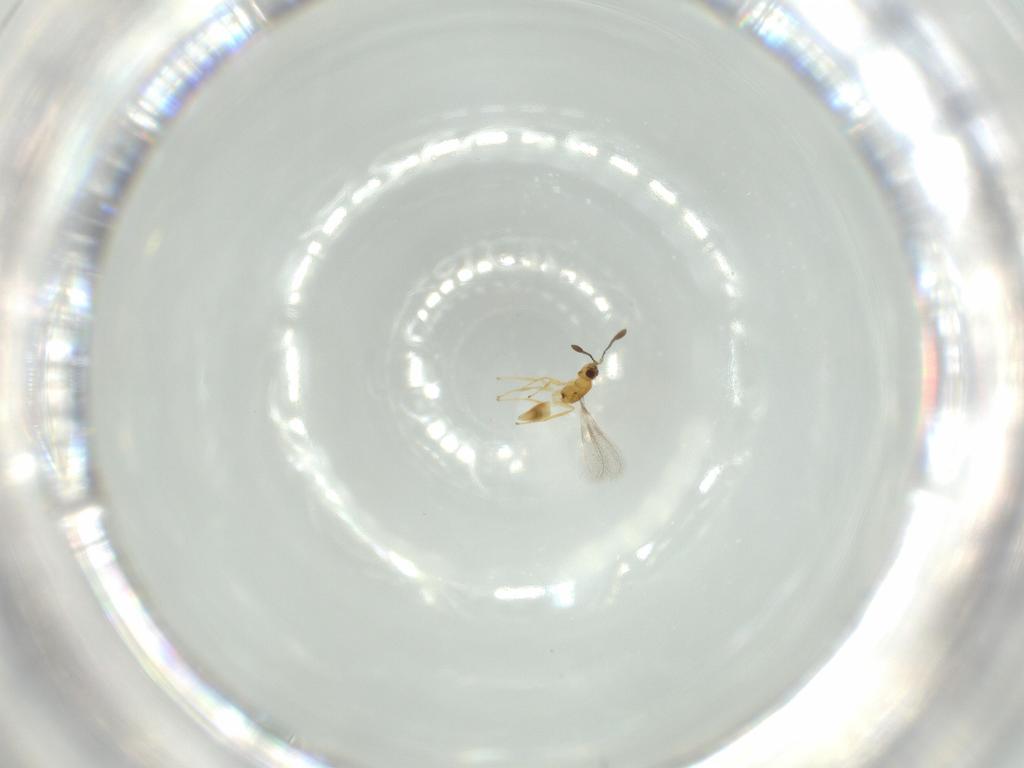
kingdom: Animalia
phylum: Arthropoda
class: Insecta
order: Hymenoptera
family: Mymaridae
